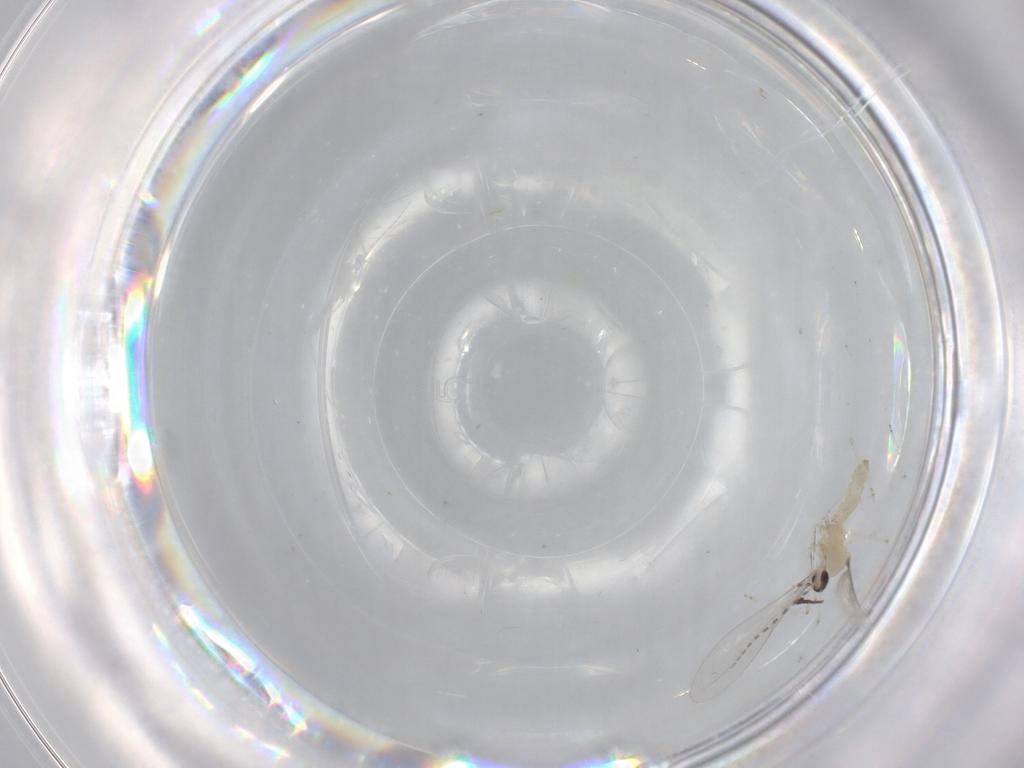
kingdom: Animalia
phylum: Arthropoda
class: Insecta
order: Diptera
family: Cecidomyiidae
